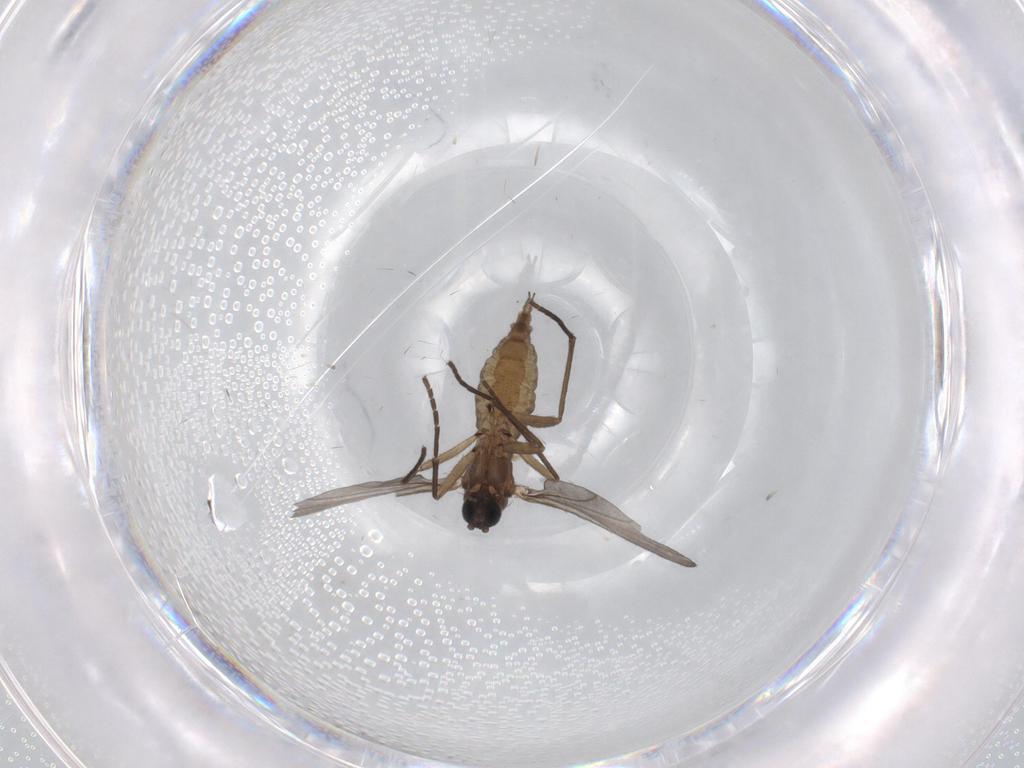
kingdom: Animalia
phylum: Arthropoda
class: Insecta
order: Diptera
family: Sciaridae
